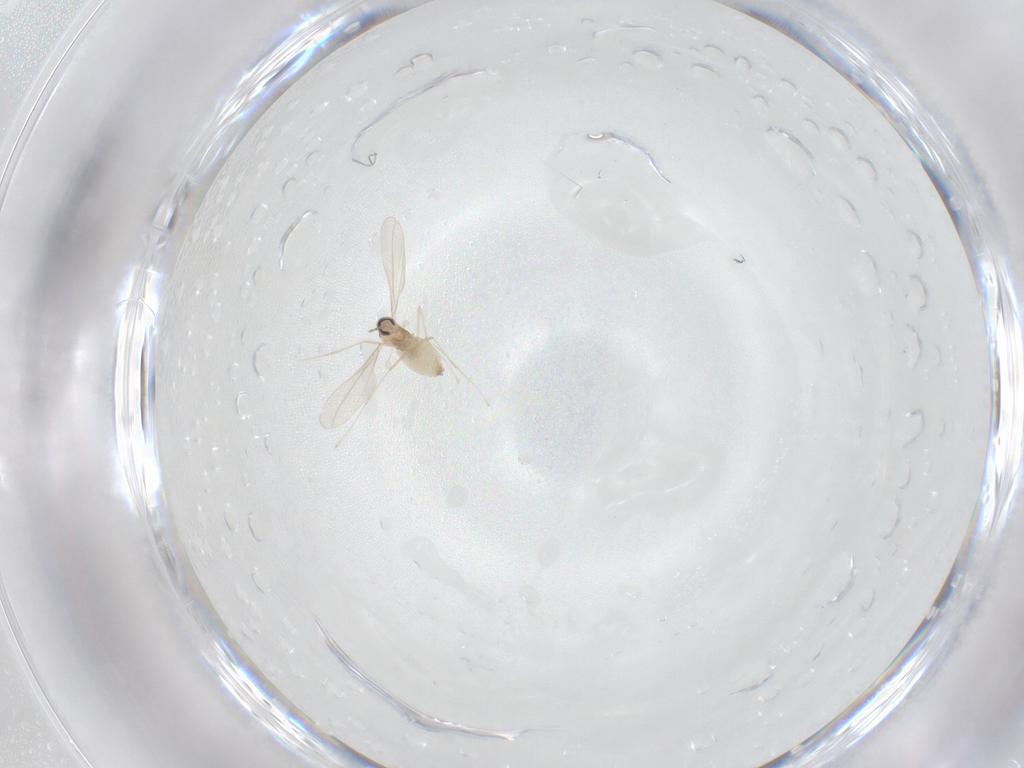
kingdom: Animalia
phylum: Arthropoda
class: Insecta
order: Diptera
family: Cecidomyiidae
